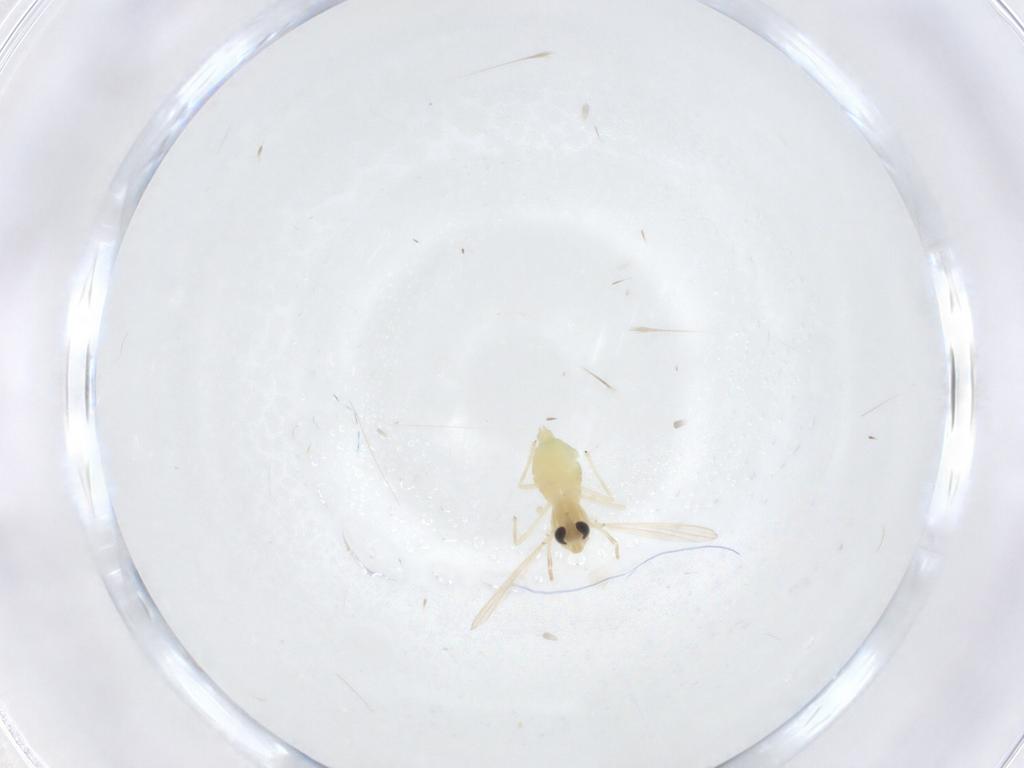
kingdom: Animalia
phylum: Arthropoda
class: Insecta
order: Diptera
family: Chironomidae
